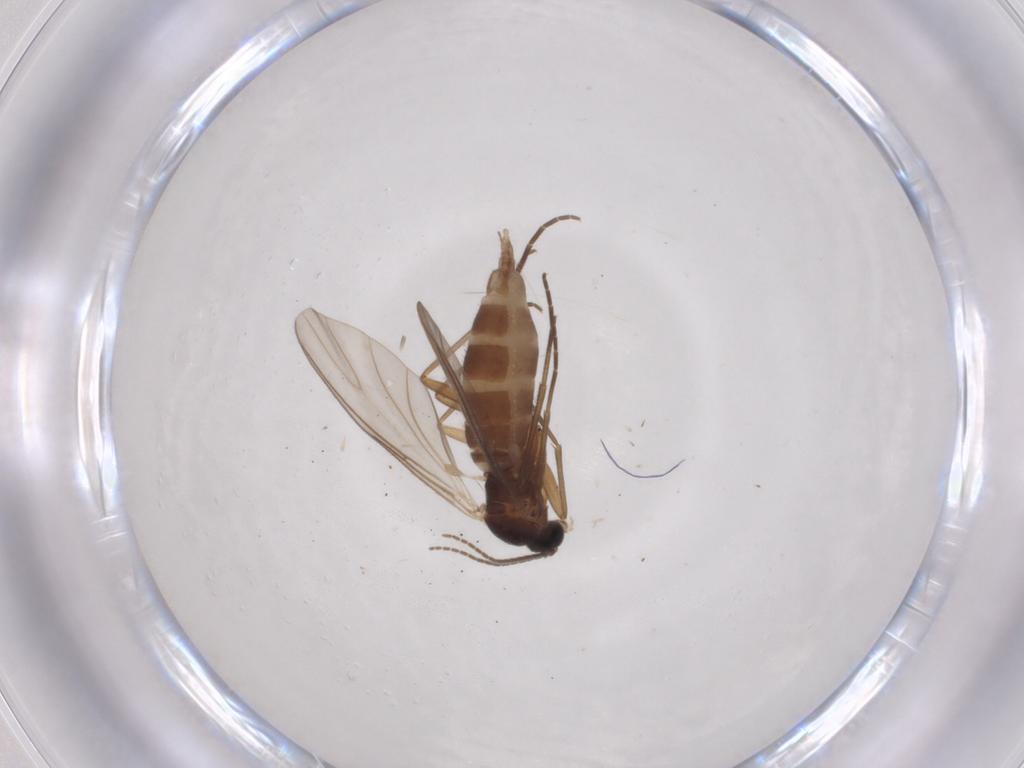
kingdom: Animalia
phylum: Arthropoda
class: Insecta
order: Diptera
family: Sciaridae
